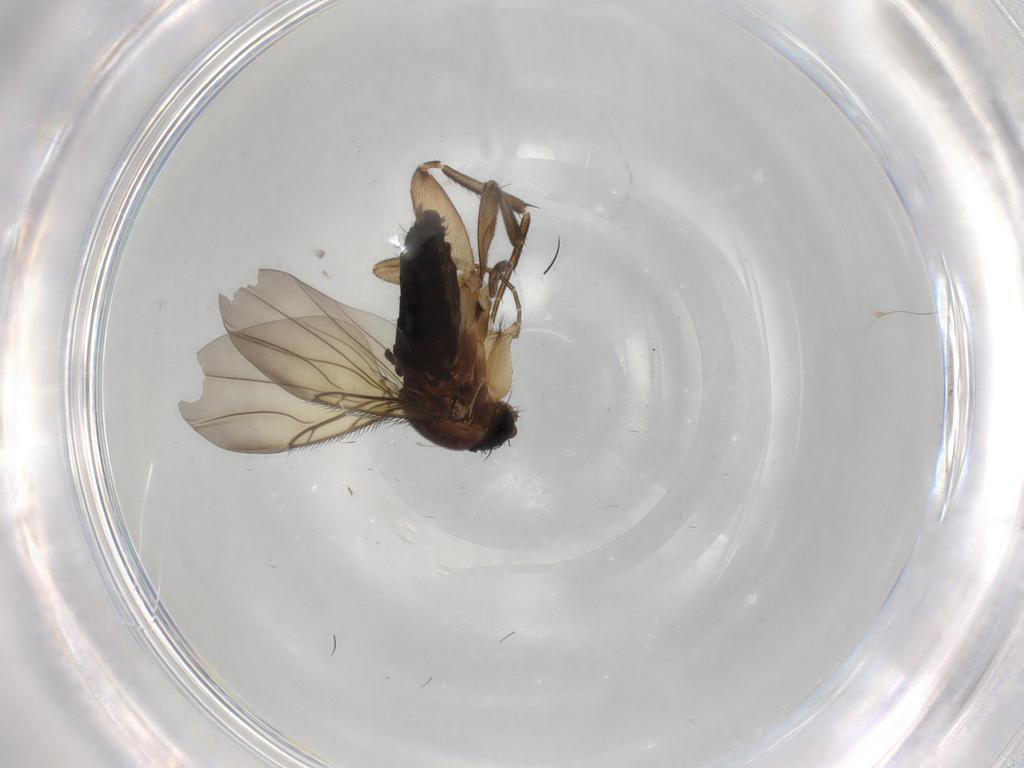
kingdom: Animalia
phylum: Arthropoda
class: Insecta
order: Diptera
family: Phoridae
